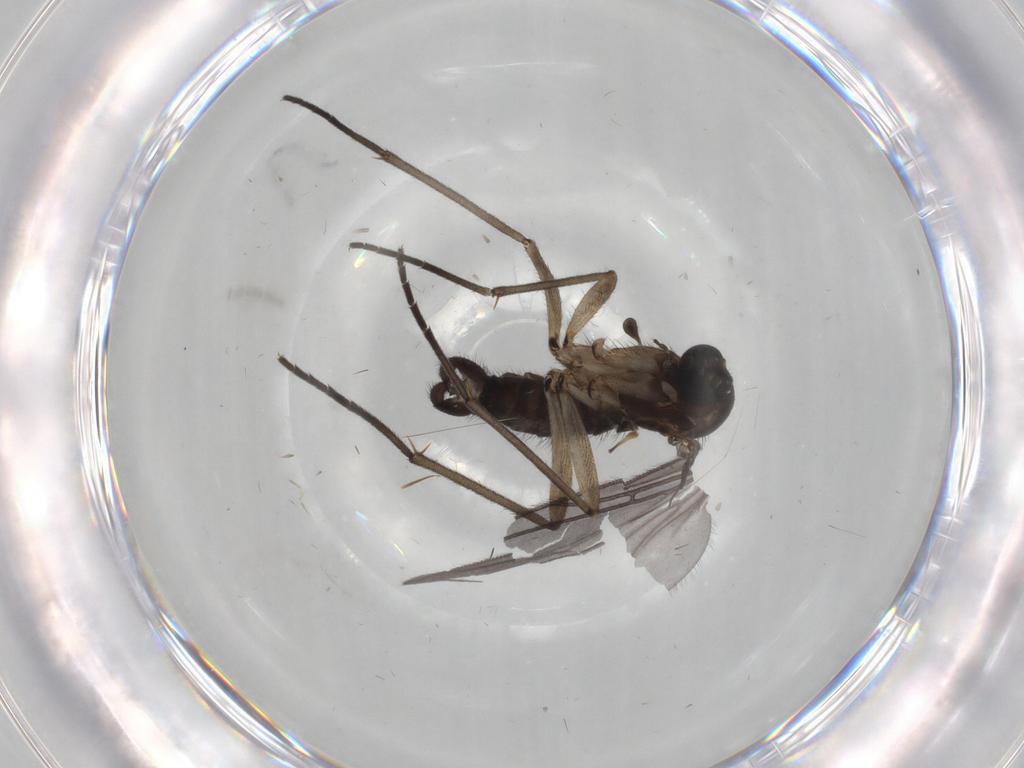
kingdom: Animalia
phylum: Arthropoda
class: Insecta
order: Diptera
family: Sciaridae
